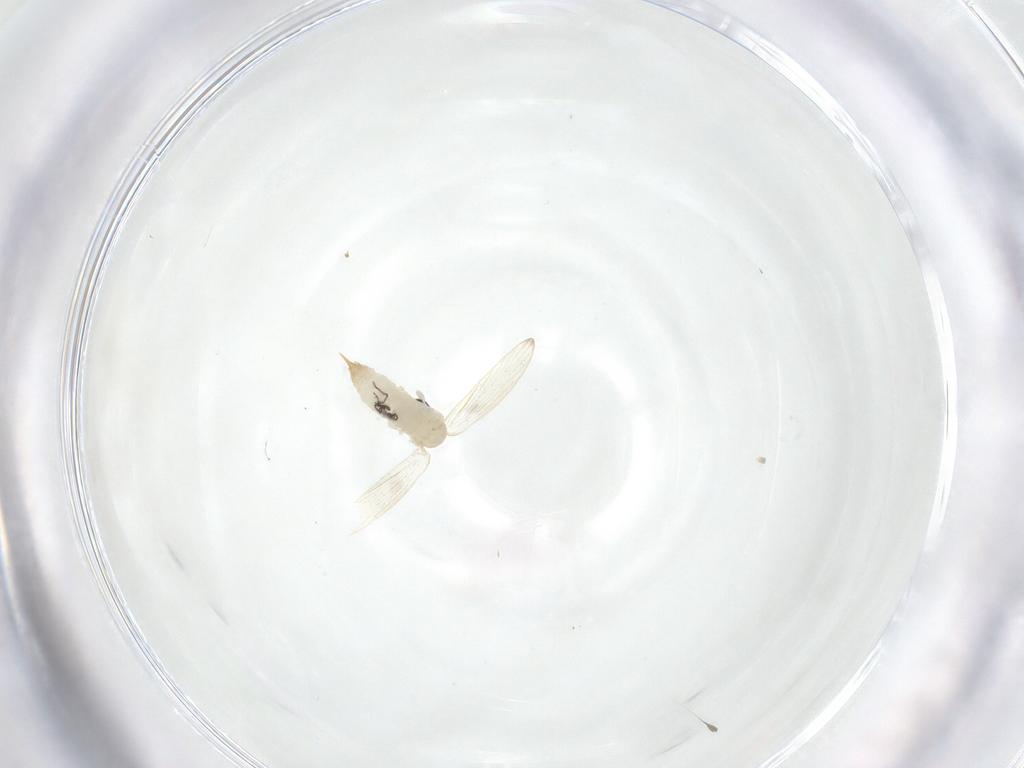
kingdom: Animalia
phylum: Arthropoda
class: Insecta
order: Diptera
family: Psychodidae
